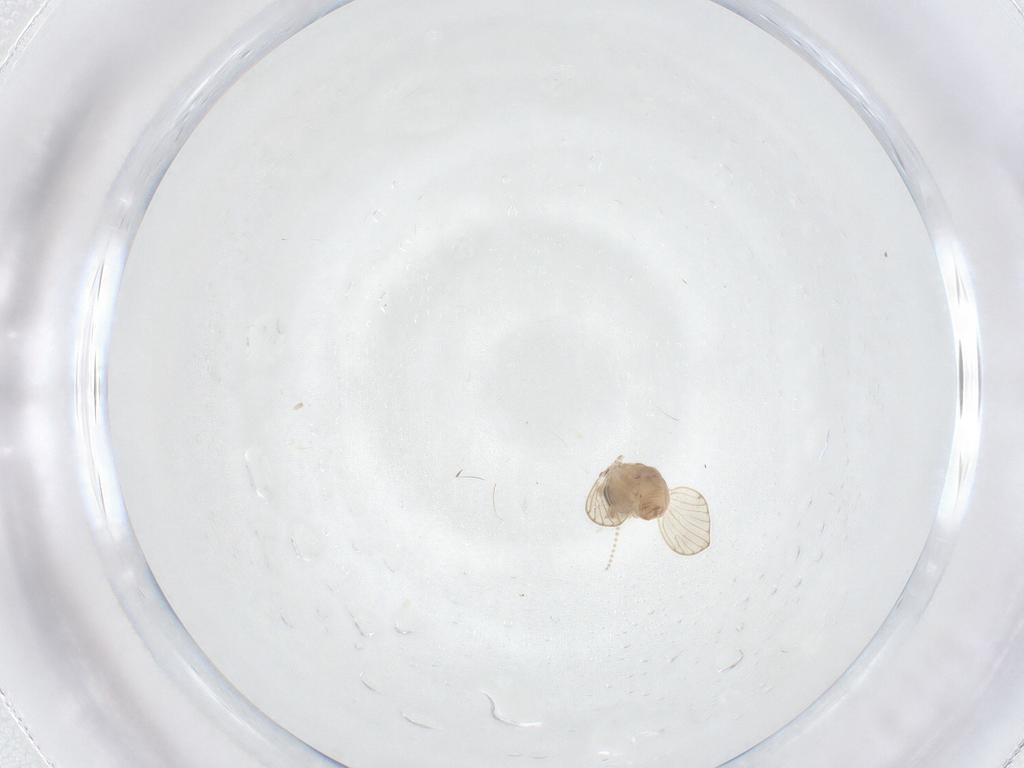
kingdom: Animalia
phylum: Arthropoda
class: Insecta
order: Diptera
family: Psychodidae
